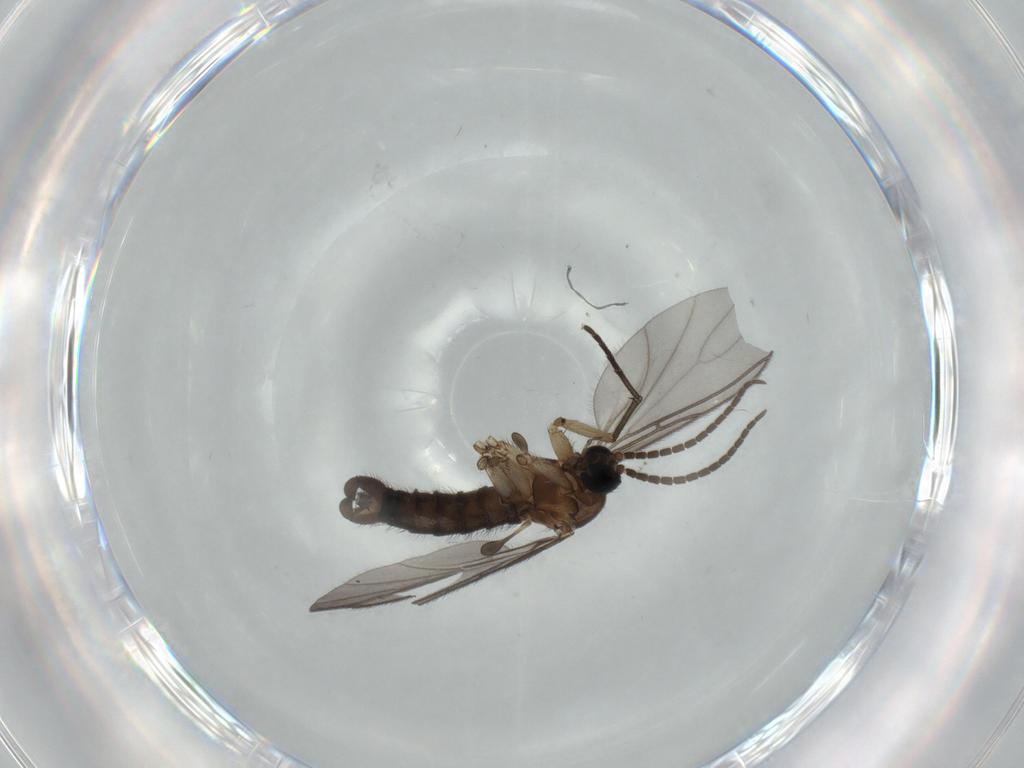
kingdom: Animalia
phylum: Arthropoda
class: Insecta
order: Diptera
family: Sciaridae
